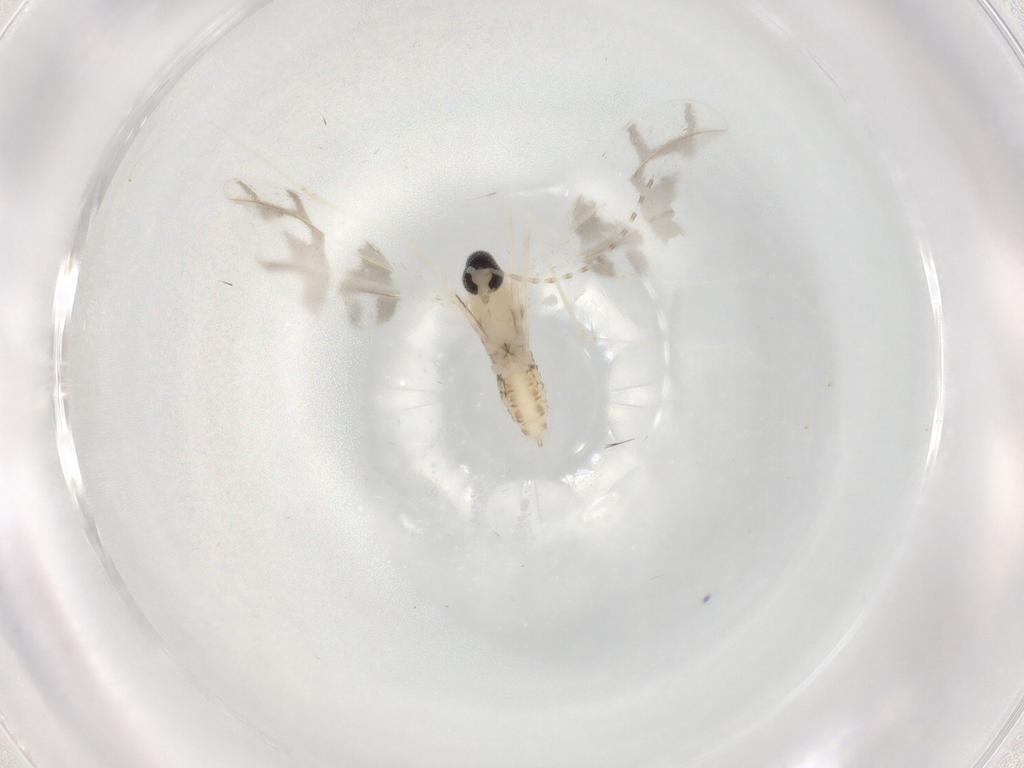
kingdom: Animalia
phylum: Arthropoda
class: Insecta
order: Diptera
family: Cecidomyiidae
